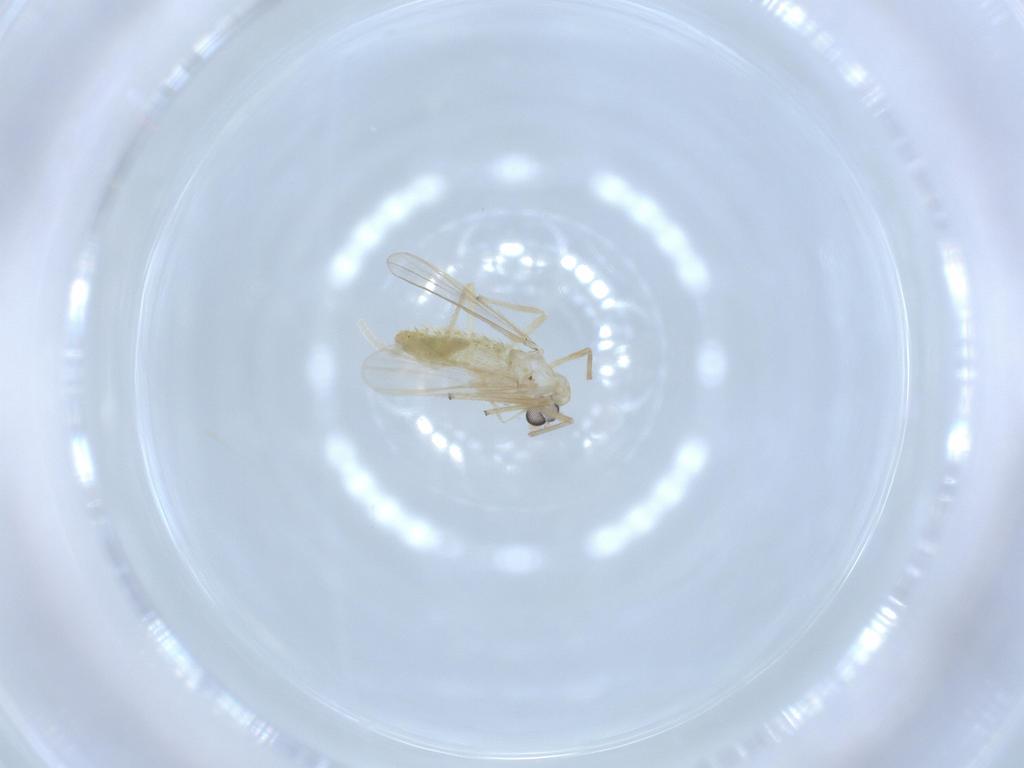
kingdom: Animalia
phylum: Arthropoda
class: Insecta
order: Diptera
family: Chironomidae
